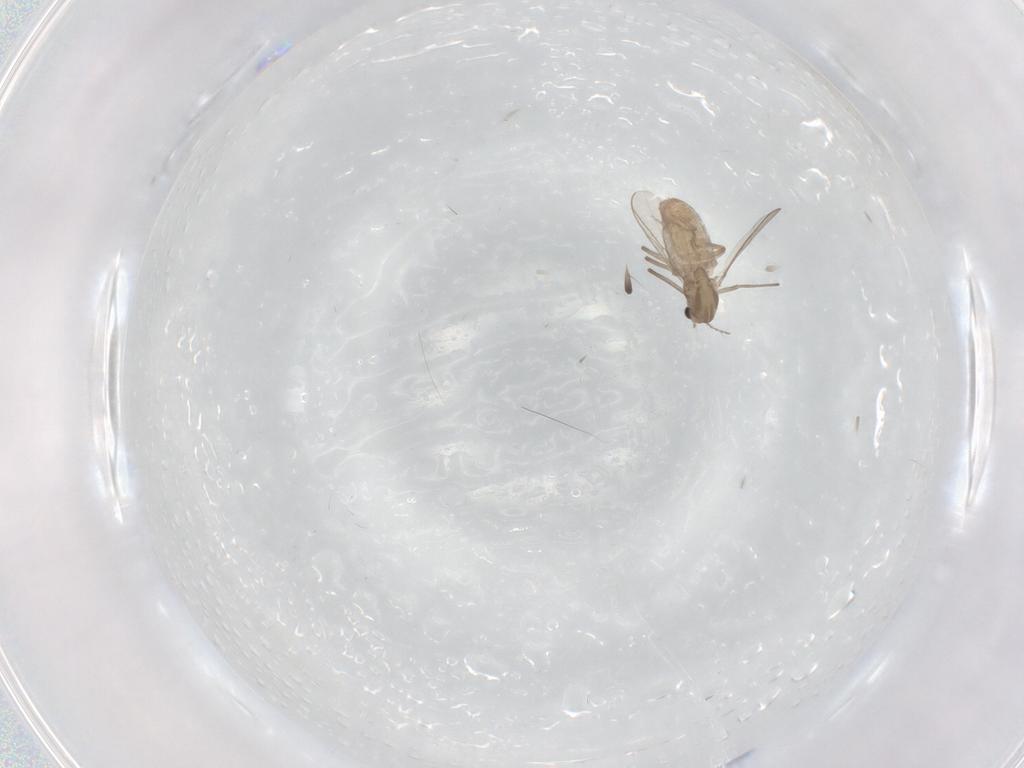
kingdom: Animalia
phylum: Arthropoda
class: Insecta
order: Diptera
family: Chironomidae
